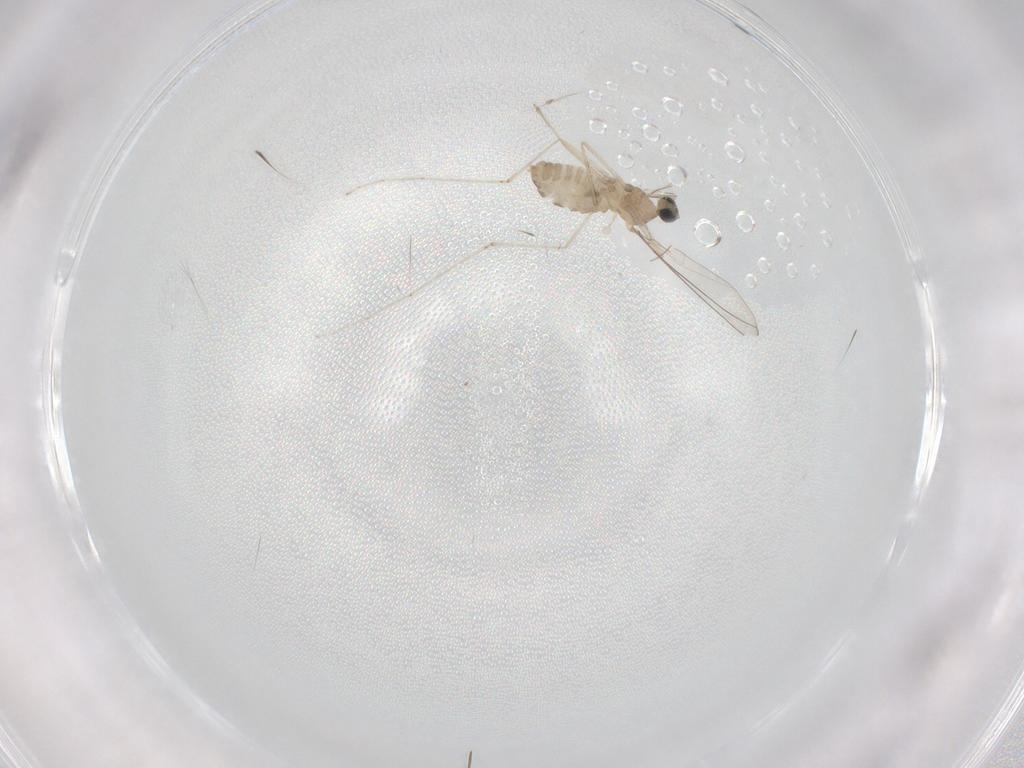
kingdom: Animalia
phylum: Arthropoda
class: Insecta
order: Diptera
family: Cecidomyiidae
